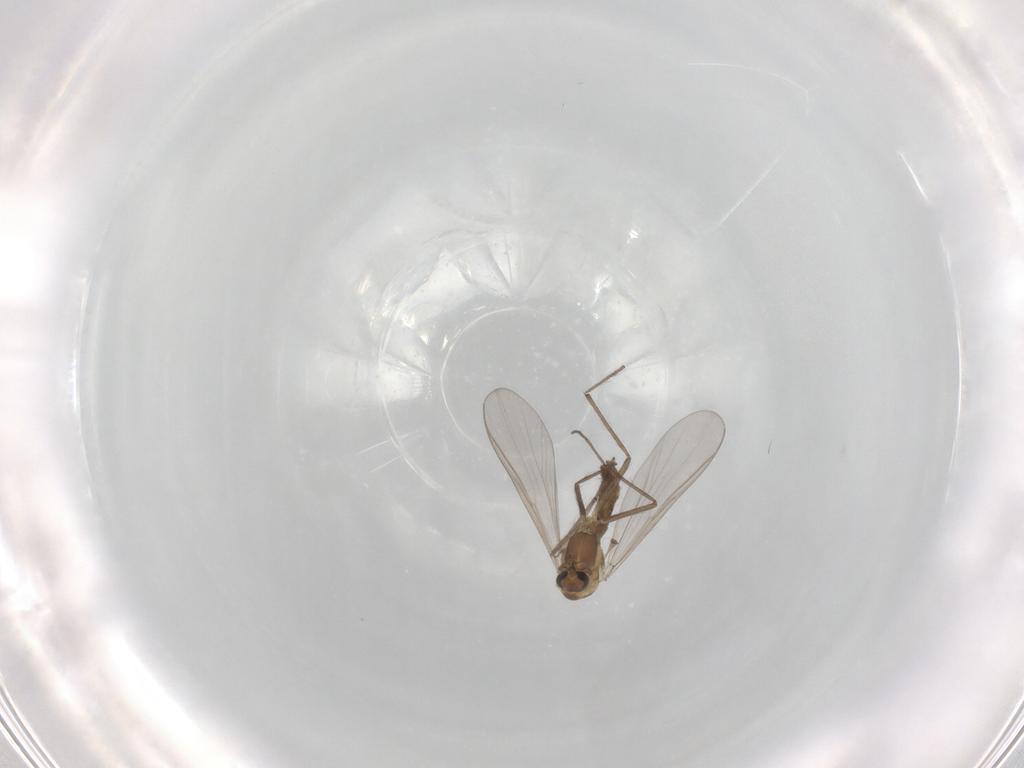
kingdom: Animalia
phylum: Arthropoda
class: Insecta
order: Diptera
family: Chironomidae
